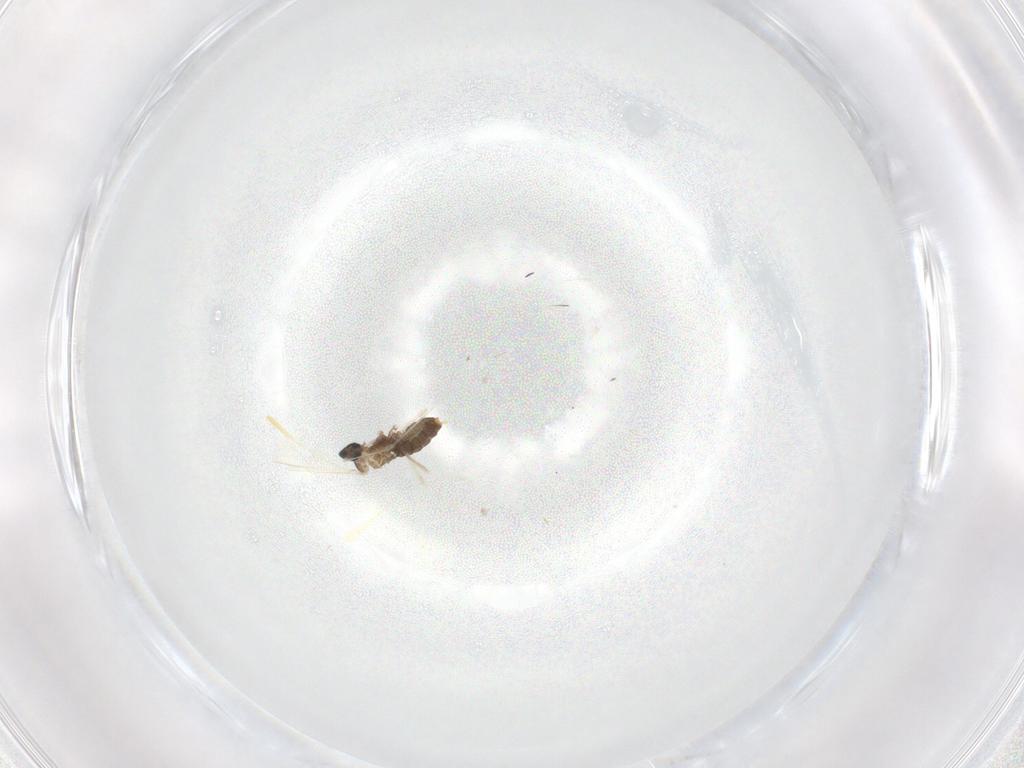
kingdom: Animalia
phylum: Arthropoda
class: Insecta
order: Diptera
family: Cecidomyiidae
